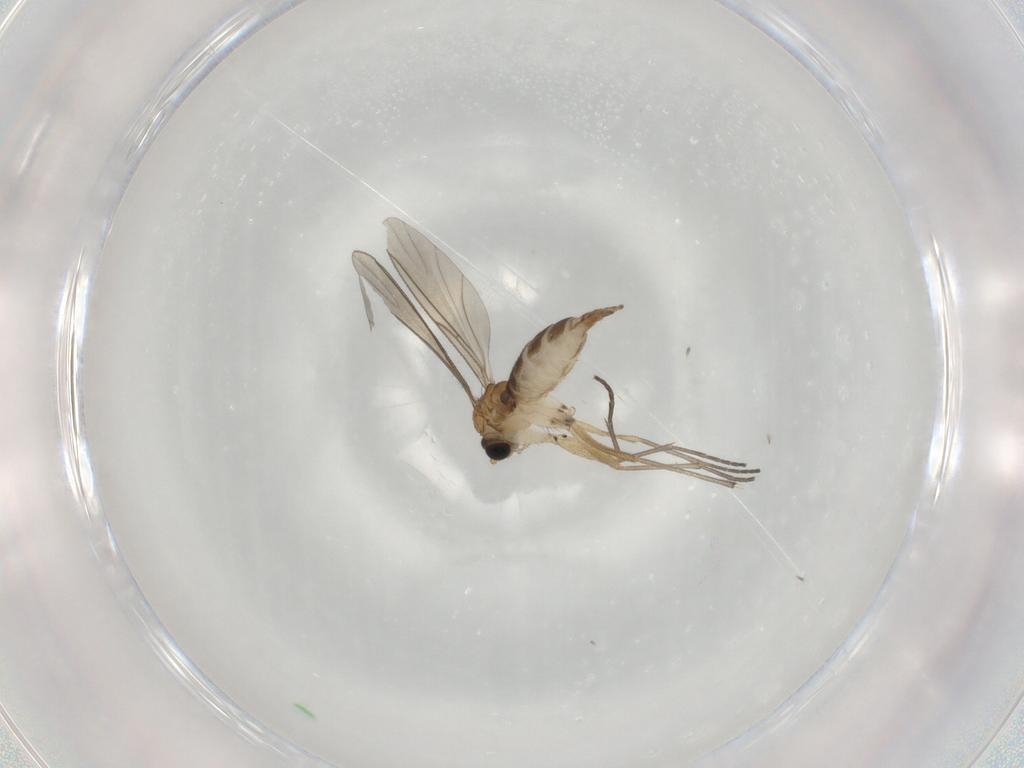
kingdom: Animalia
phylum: Arthropoda
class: Insecta
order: Diptera
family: Sciaridae
